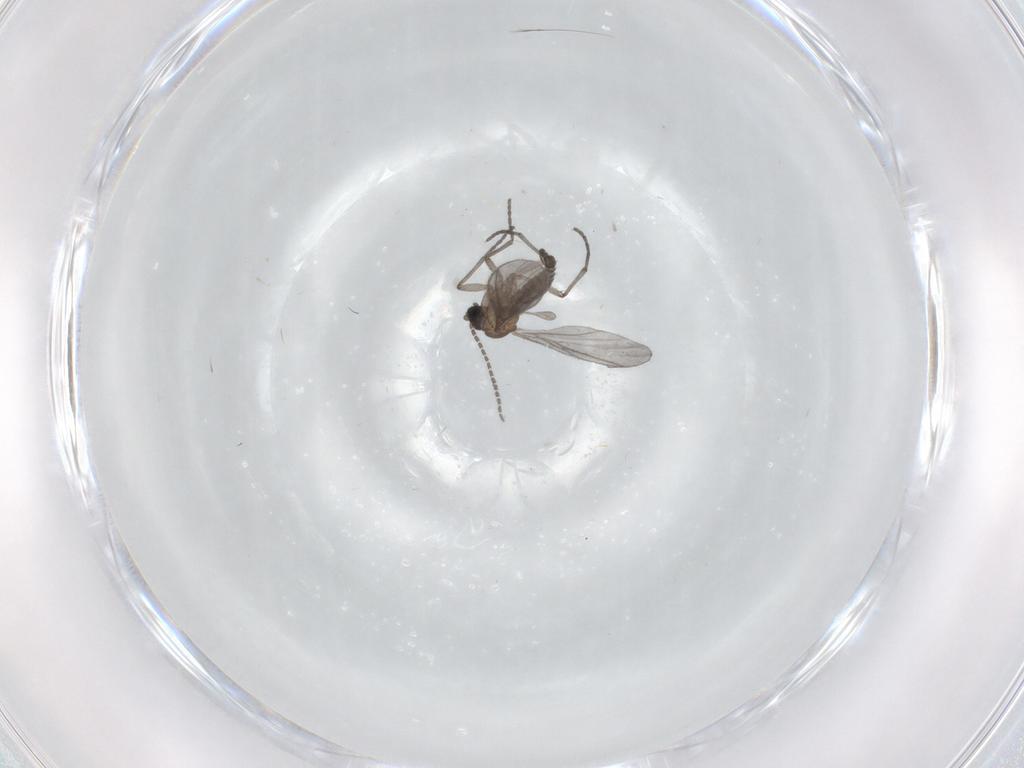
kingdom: Animalia
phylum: Arthropoda
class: Insecta
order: Diptera
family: Sciaridae
